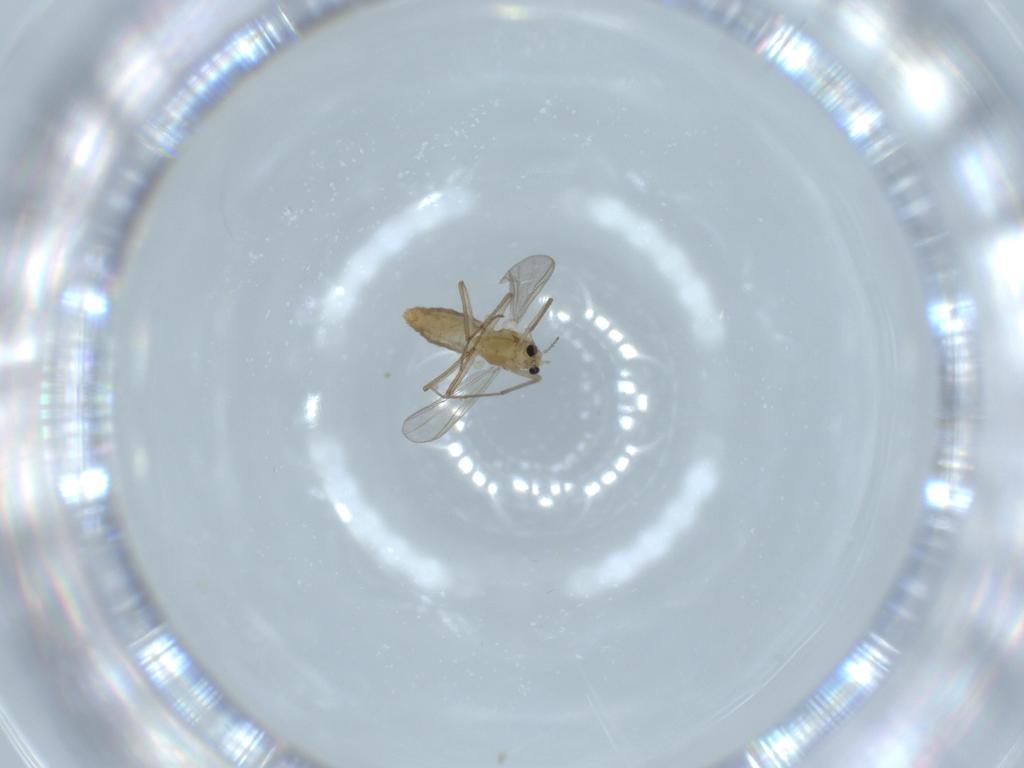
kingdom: Animalia
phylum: Arthropoda
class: Insecta
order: Diptera
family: Chironomidae
